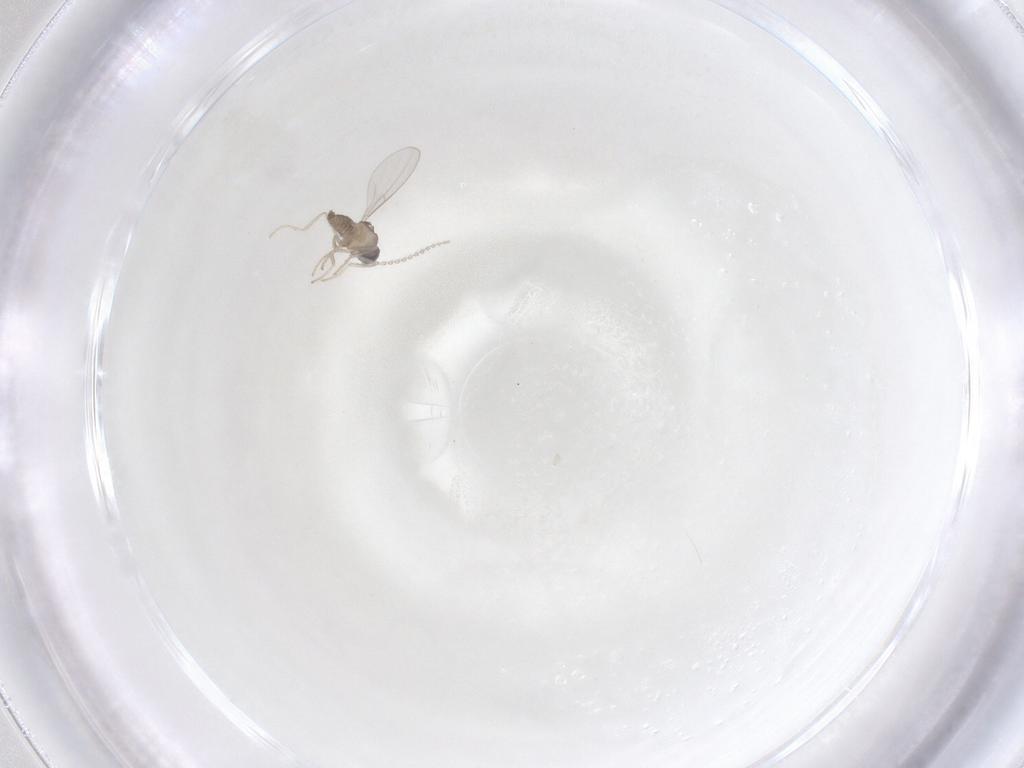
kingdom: Animalia
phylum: Arthropoda
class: Insecta
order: Diptera
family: Cecidomyiidae
